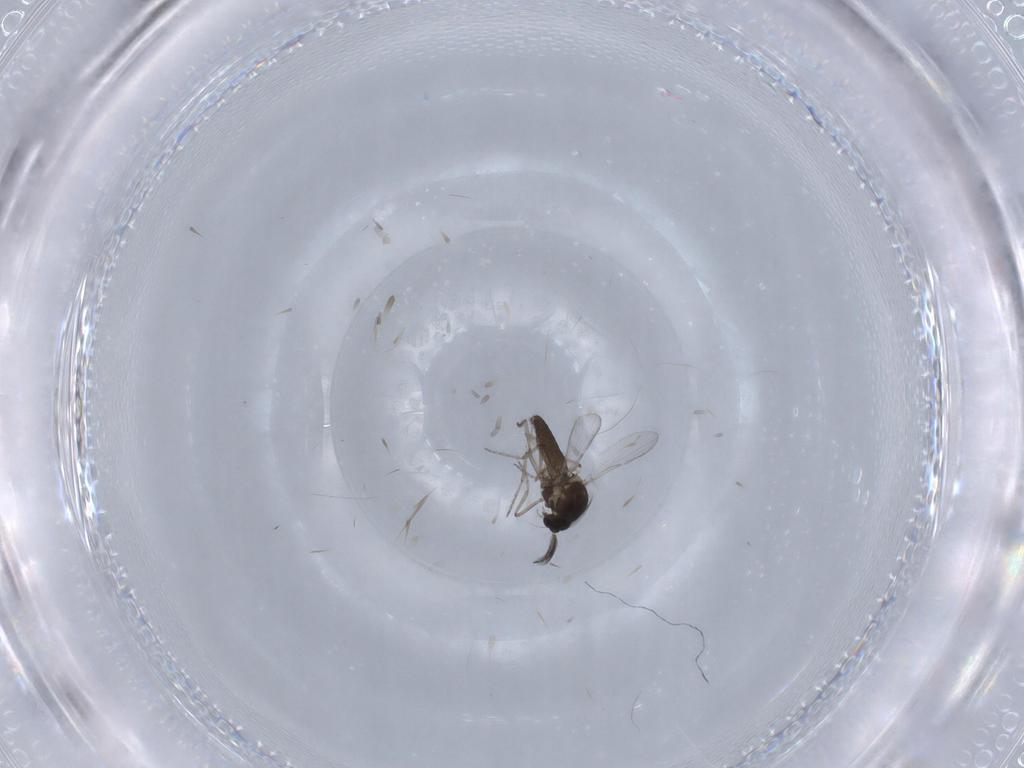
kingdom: Animalia
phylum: Arthropoda
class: Insecta
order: Diptera
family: Ceratopogonidae
